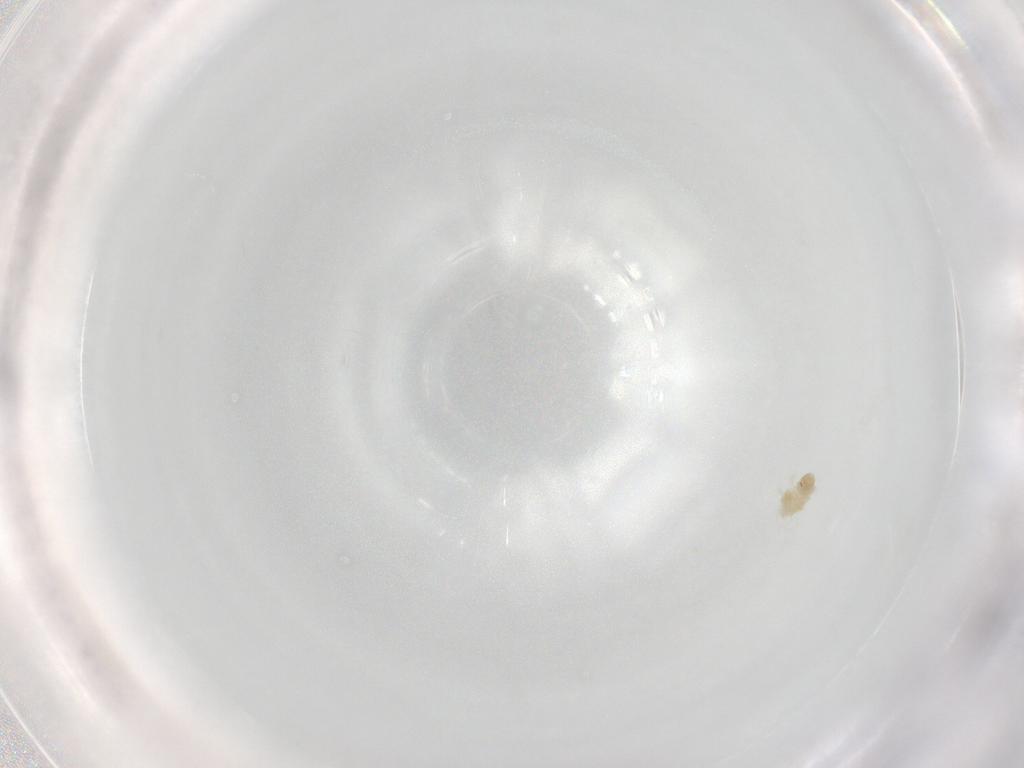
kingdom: Animalia
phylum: Arthropoda
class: Arachnida
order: Trombidiformes
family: Eupodidae
